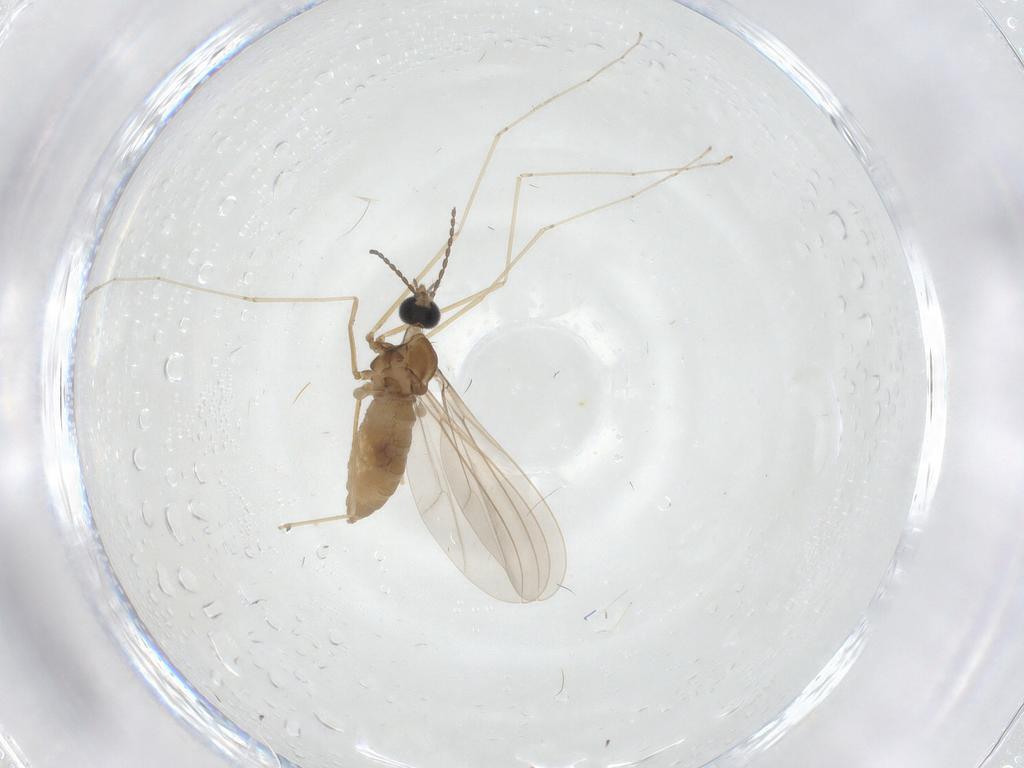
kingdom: Animalia
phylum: Arthropoda
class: Insecta
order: Diptera
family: Cecidomyiidae
